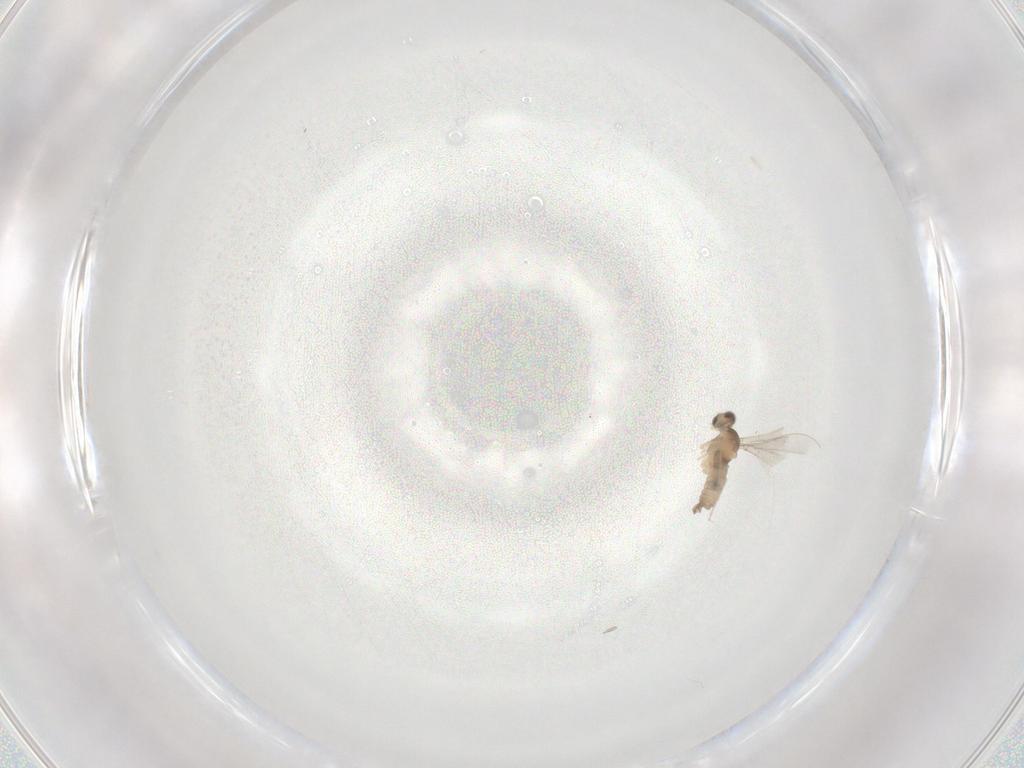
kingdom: Animalia
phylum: Arthropoda
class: Insecta
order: Diptera
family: Cecidomyiidae
